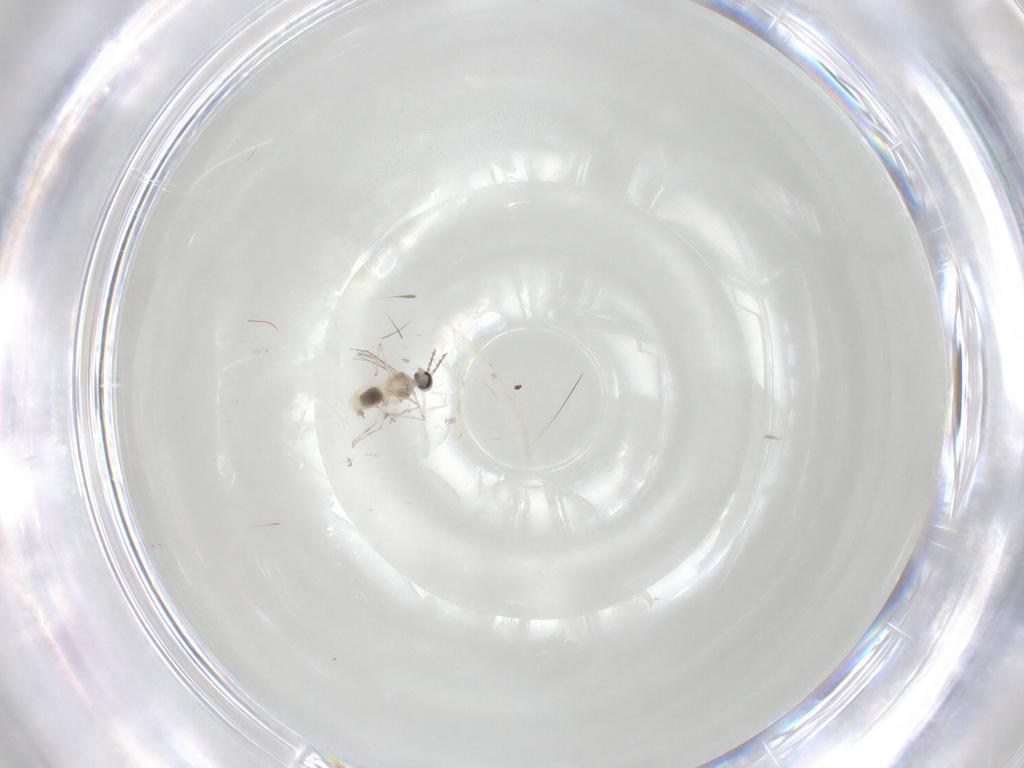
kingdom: Animalia
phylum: Arthropoda
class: Insecta
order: Diptera
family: Cecidomyiidae
